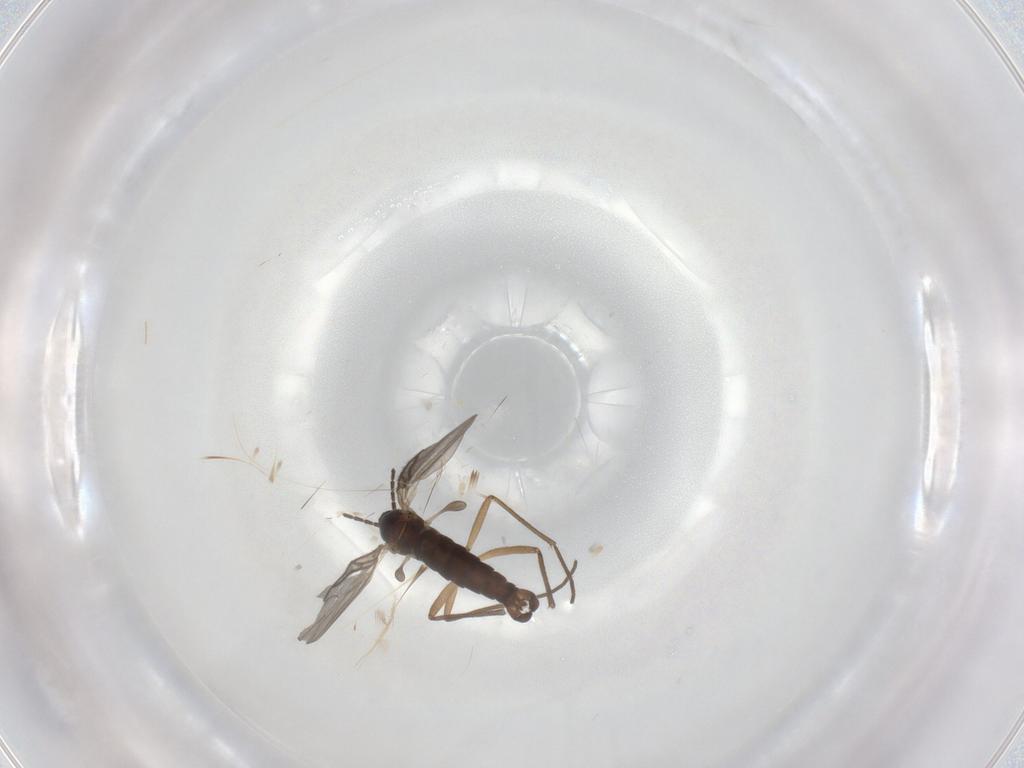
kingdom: Animalia
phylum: Arthropoda
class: Insecta
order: Diptera
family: Sciaridae
